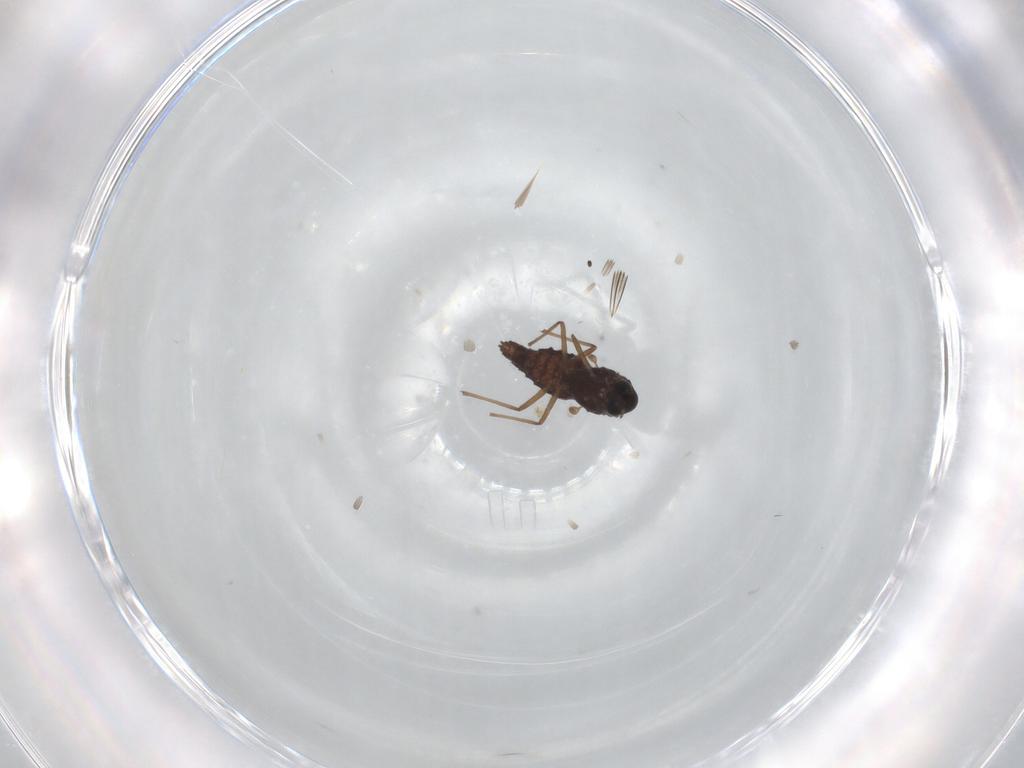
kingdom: Animalia
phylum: Arthropoda
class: Insecta
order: Diptera
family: Chironomidae
